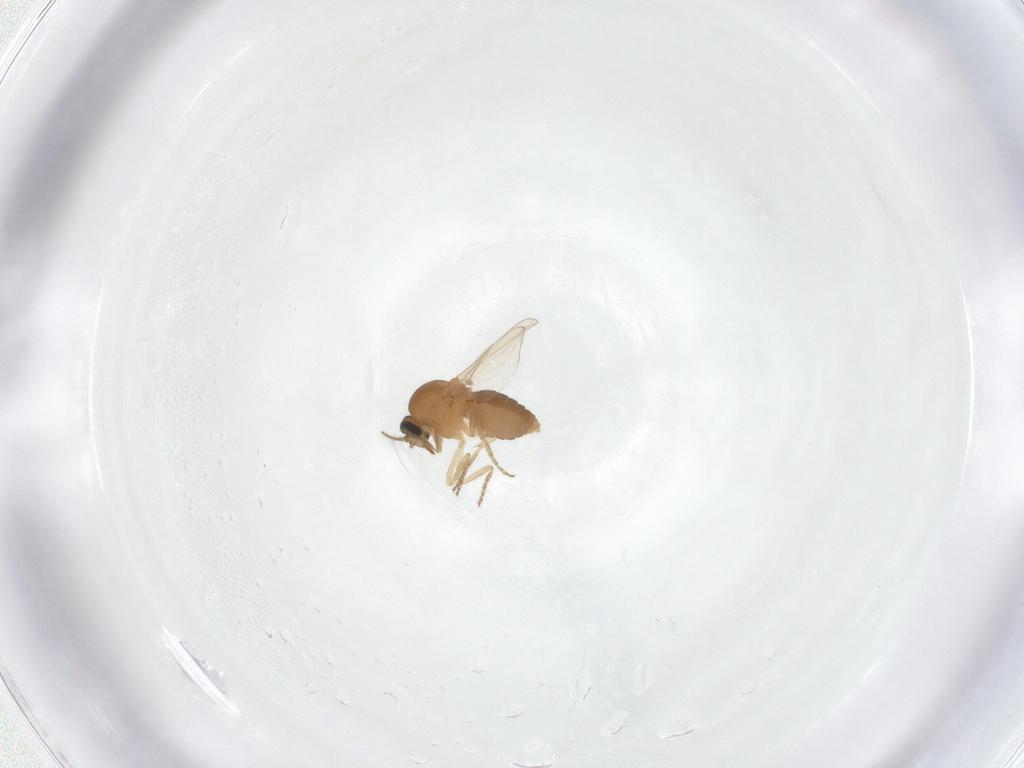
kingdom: Animalia
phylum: Arthropoda
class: Insecta
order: Diptera
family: Ceratopogonidae
